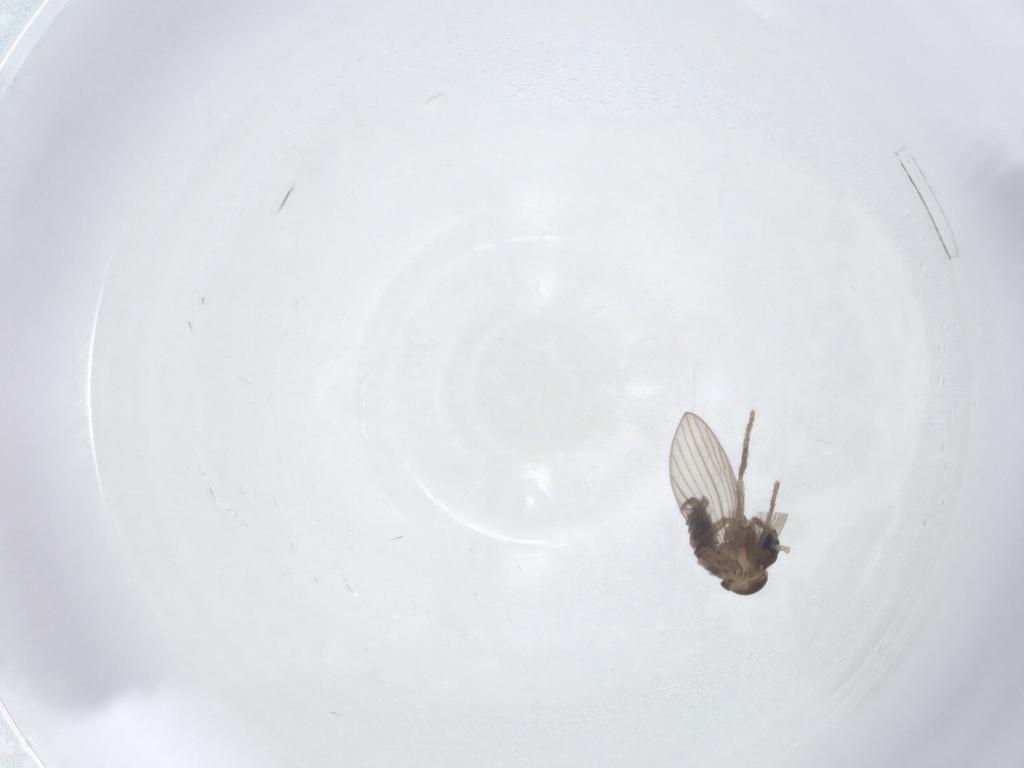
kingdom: Animalia
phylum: Arthropoda
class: Insecta
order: Diptera
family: Psychodidae
